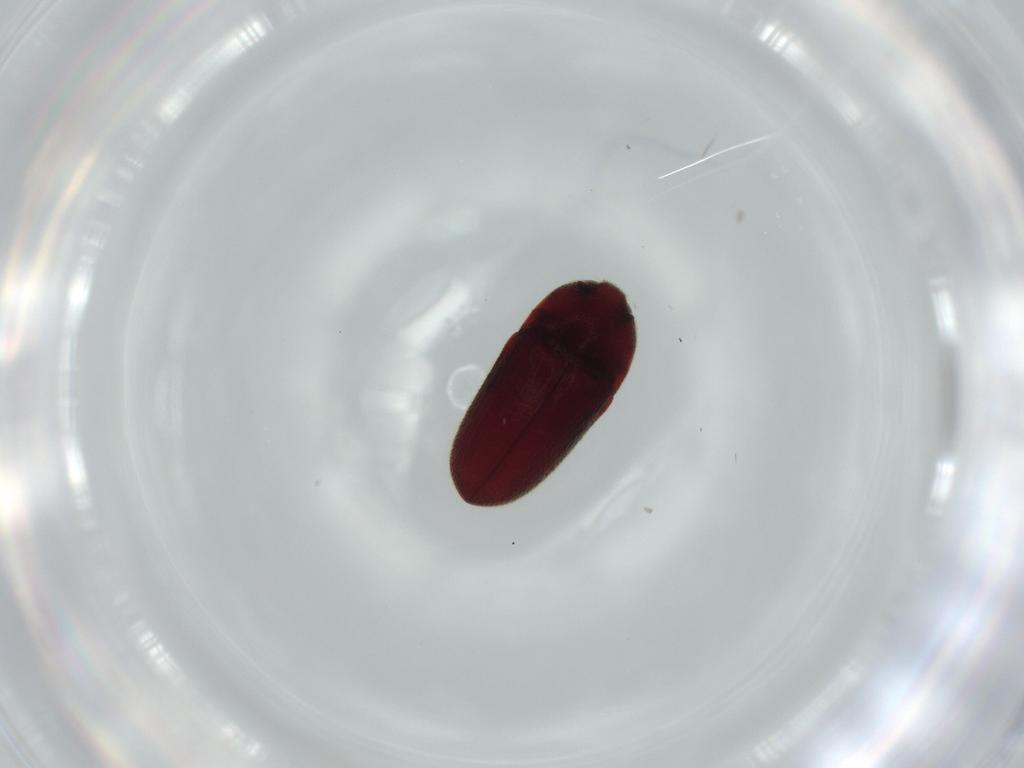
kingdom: Animalia
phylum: Arthropoda
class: Insecta
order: Coleoptera
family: Throscidae
